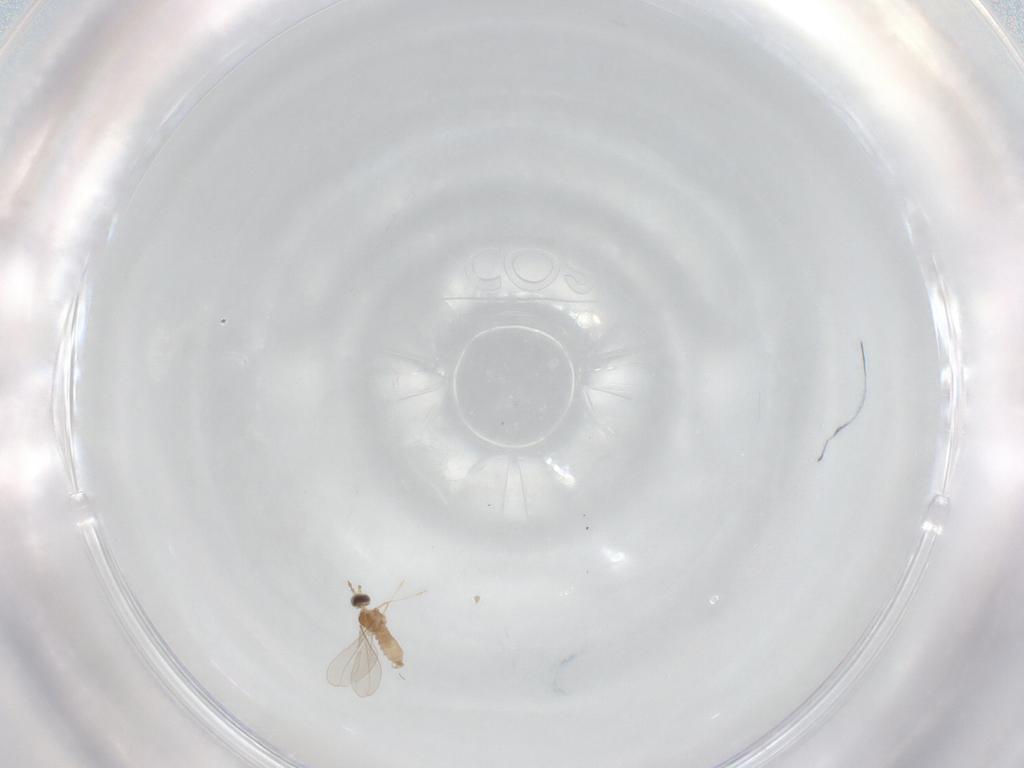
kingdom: Animalia
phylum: Arthropoda
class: Insecta
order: Diptera
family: Cecidomyiidae
